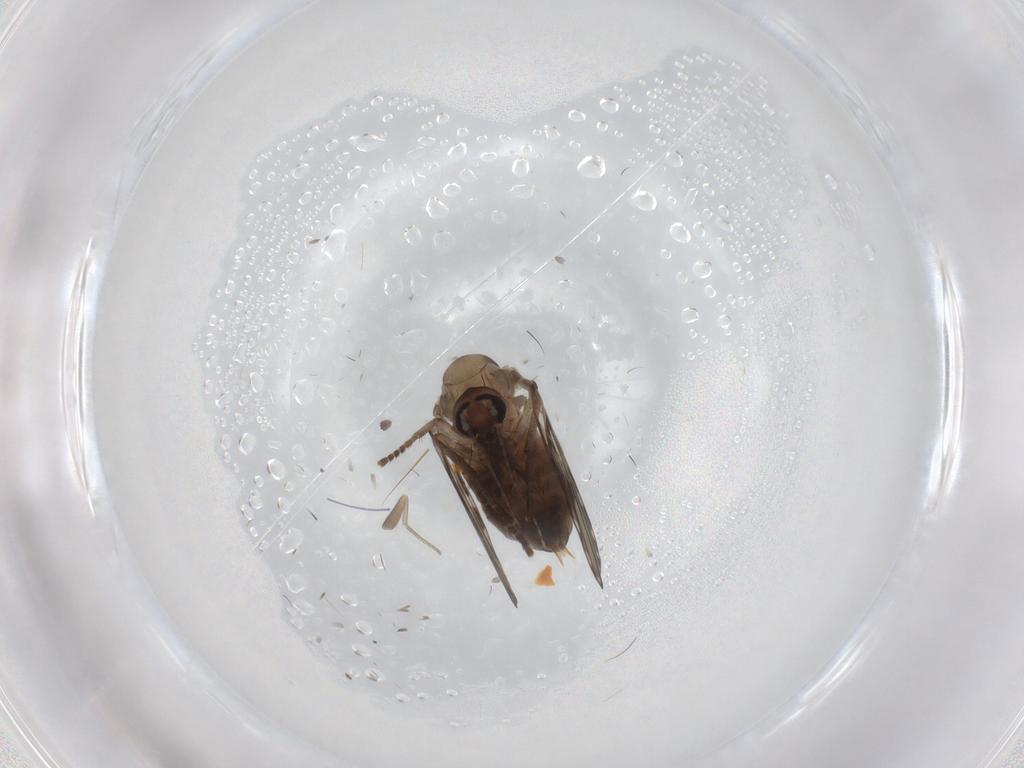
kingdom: Animalia
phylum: Arthropoda
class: Insecta
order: Diptera
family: Psychodidae
